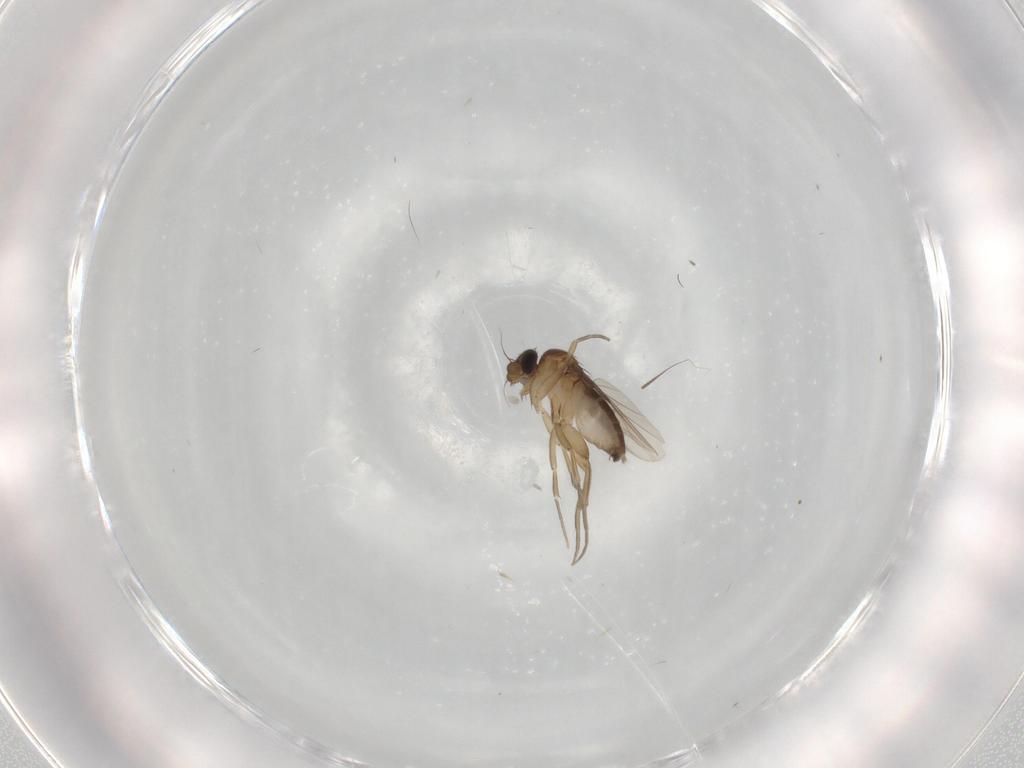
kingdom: Animalia
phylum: Arthropoda
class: Insecta
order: Diptera
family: Phoridae
